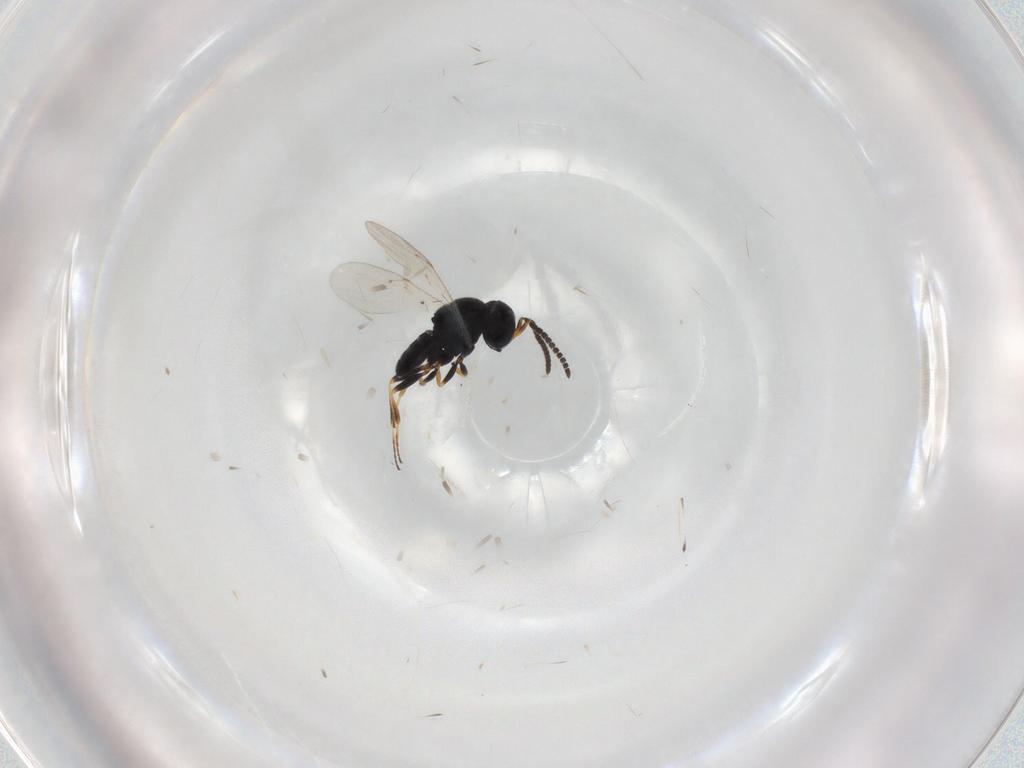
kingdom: Animalia
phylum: Arthropoda
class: Insecta
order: Coleoptera
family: Curculionidae
